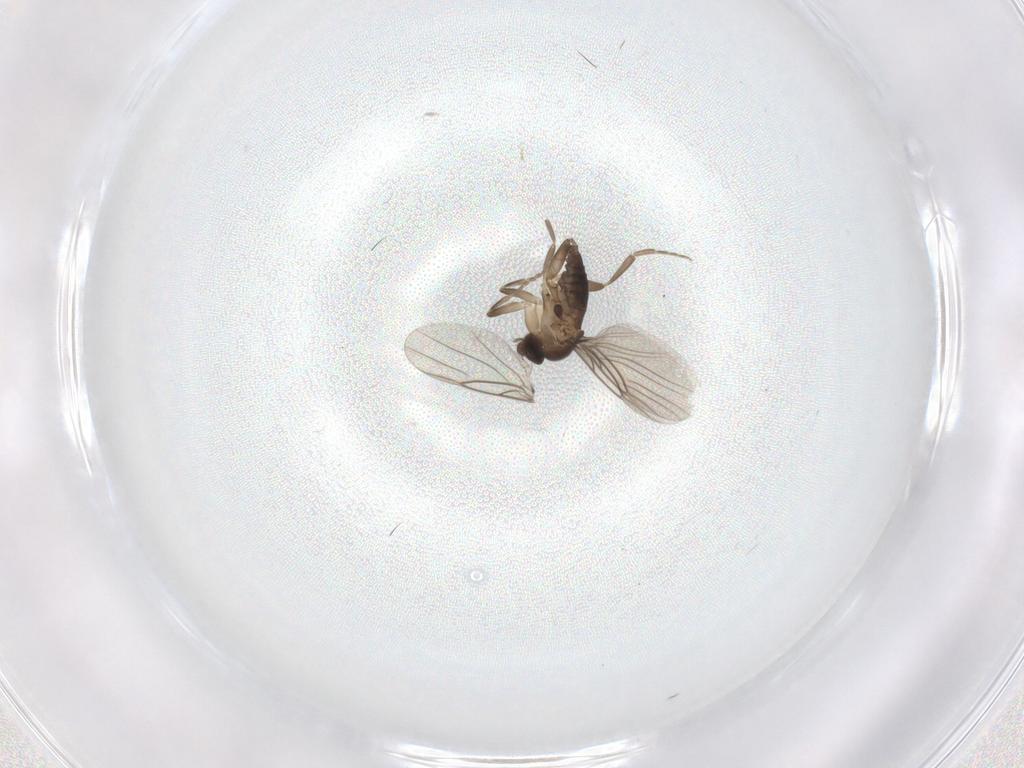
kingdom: Animalia
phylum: Arthropoda
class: Insecta
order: Diptera
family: Phoridae
